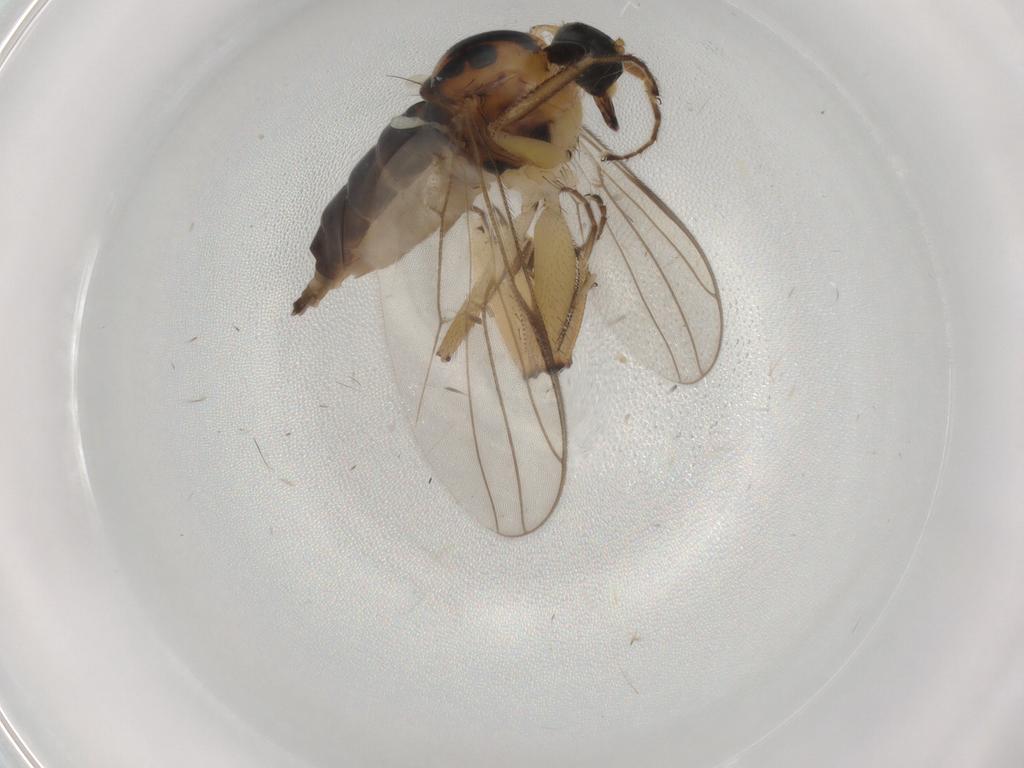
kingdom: Animalia
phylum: Arthropoda
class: Insecta
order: Diptera
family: Hybotidae
